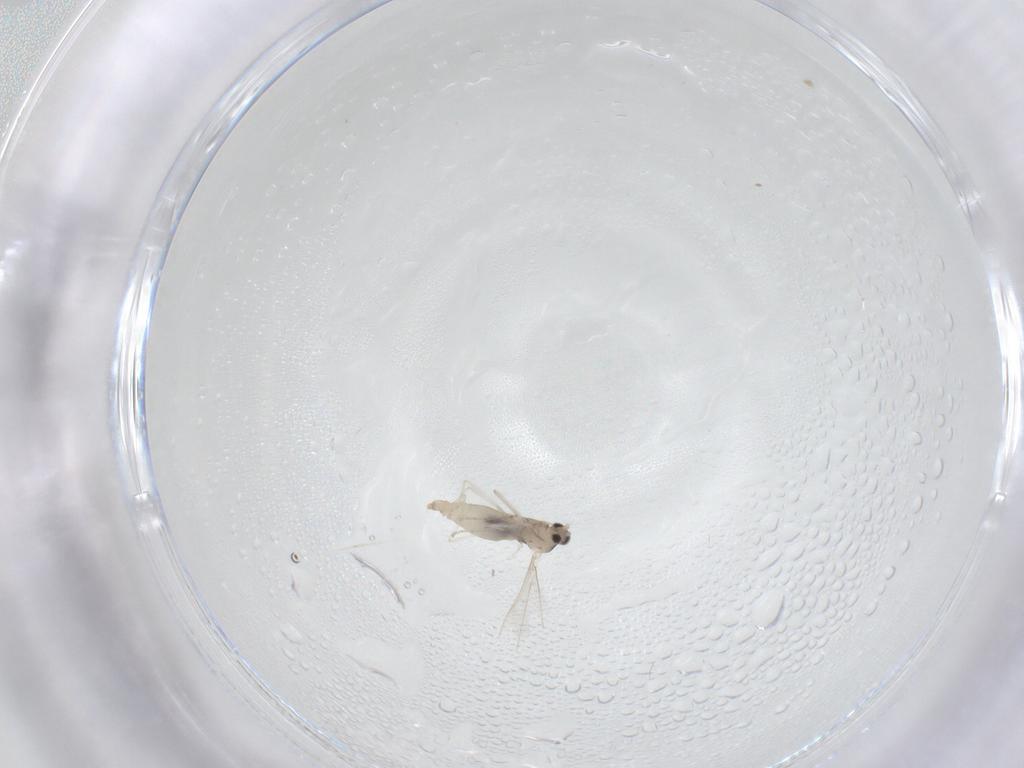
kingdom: Animalia
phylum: Arthropoda
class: Insecta
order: Diptera
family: Cecidomyiidae
